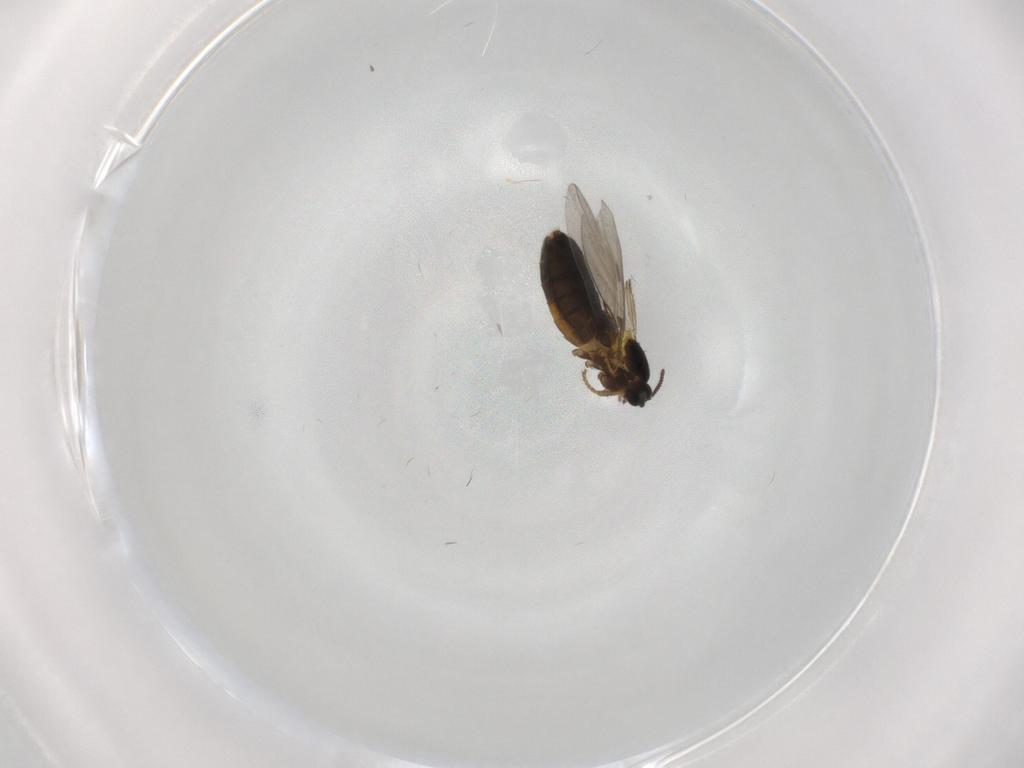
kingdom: Animalia
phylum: Arthropoda
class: Insecta
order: Diptera
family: Scatopsidae
